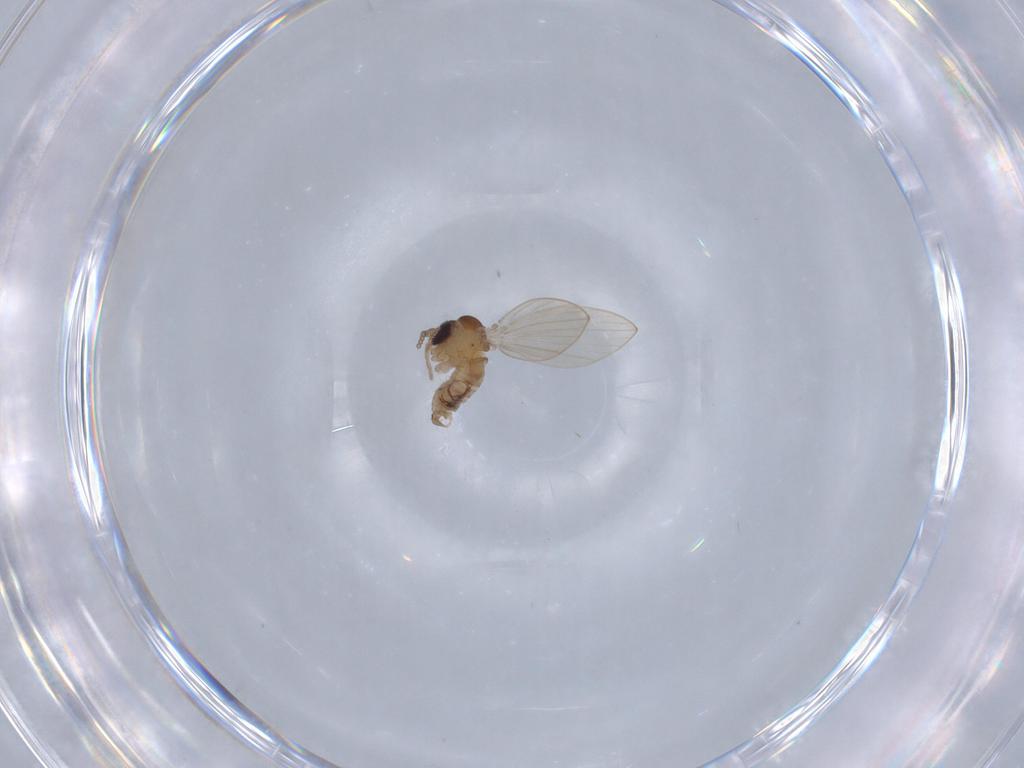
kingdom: Animalia
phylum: Arthropoda
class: Insecta
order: Diptera
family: Psychodidae
